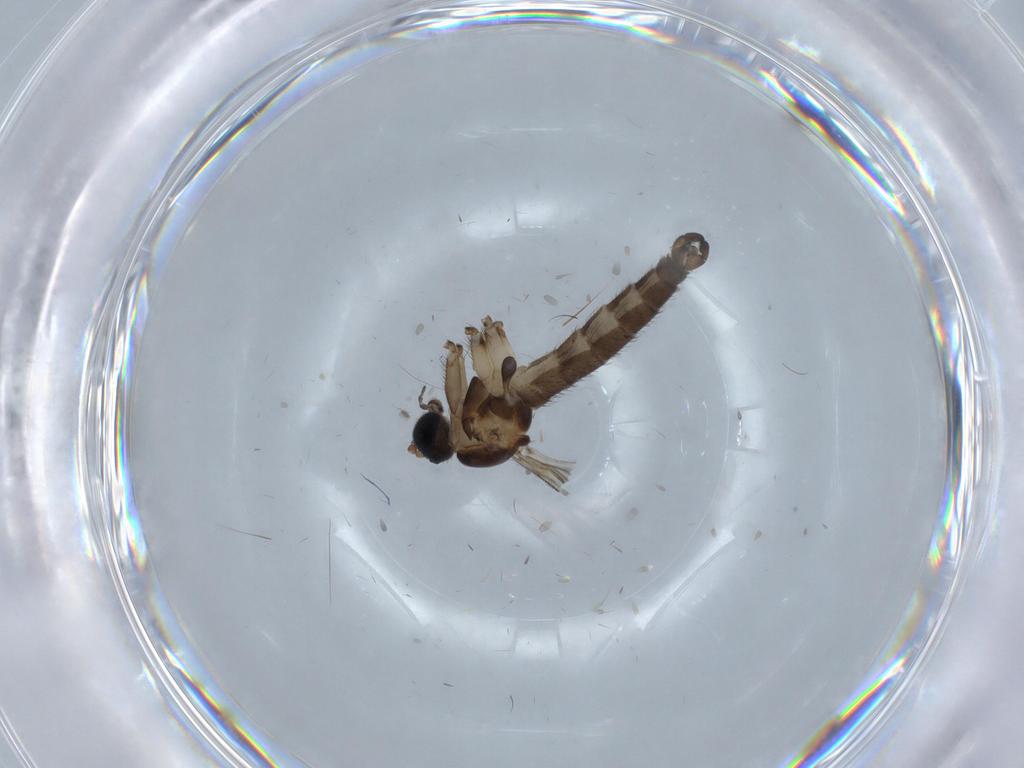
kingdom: Animalia
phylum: Arthropoda
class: Insecta
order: Diptera
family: Sciaridae
